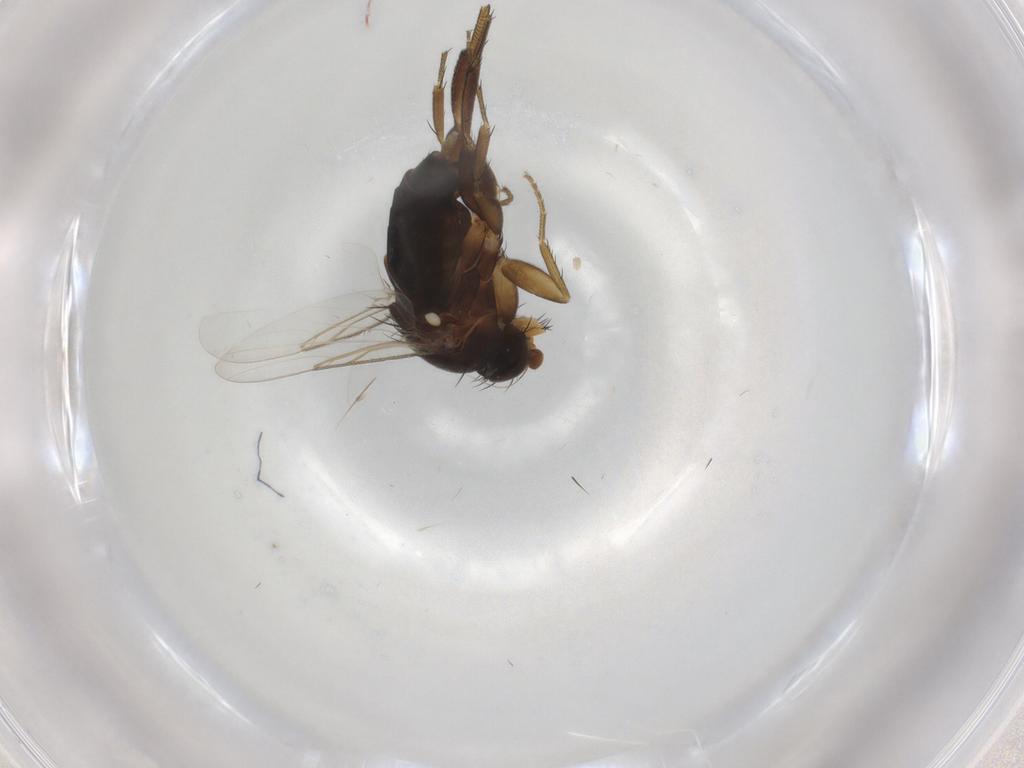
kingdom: Animalia
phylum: Arthropoda
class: Insecta
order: Diptera
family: Phoridae
